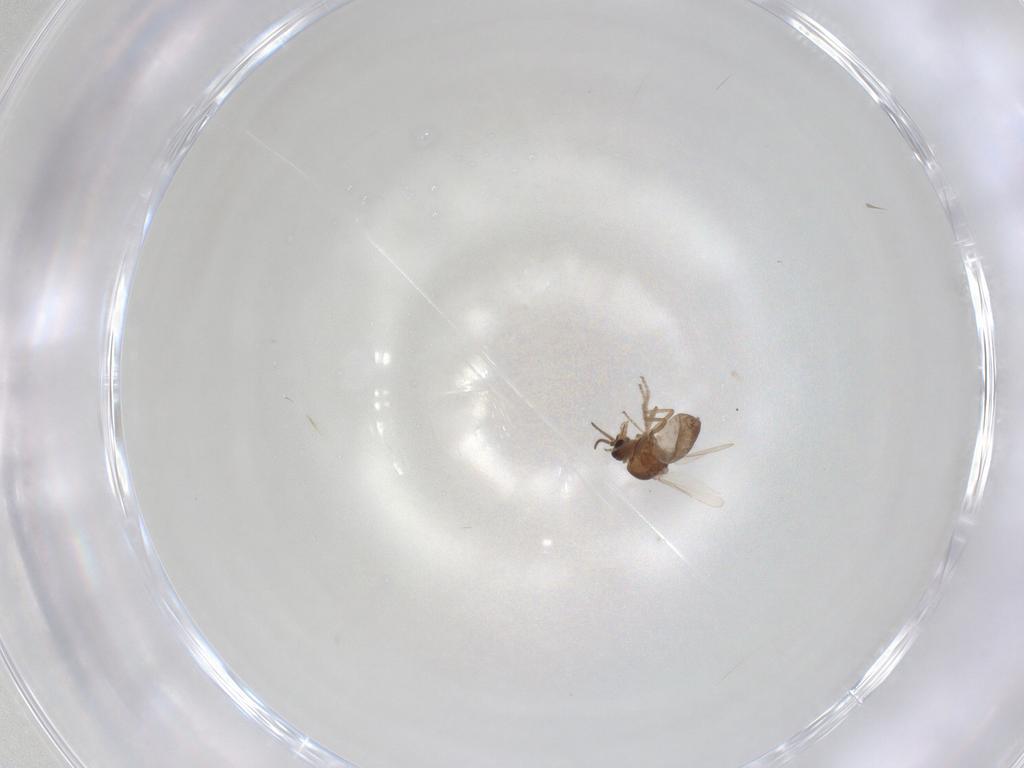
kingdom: Animalia
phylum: Arthropoda
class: Insecta
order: Diptera
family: Ceratopogonidae
